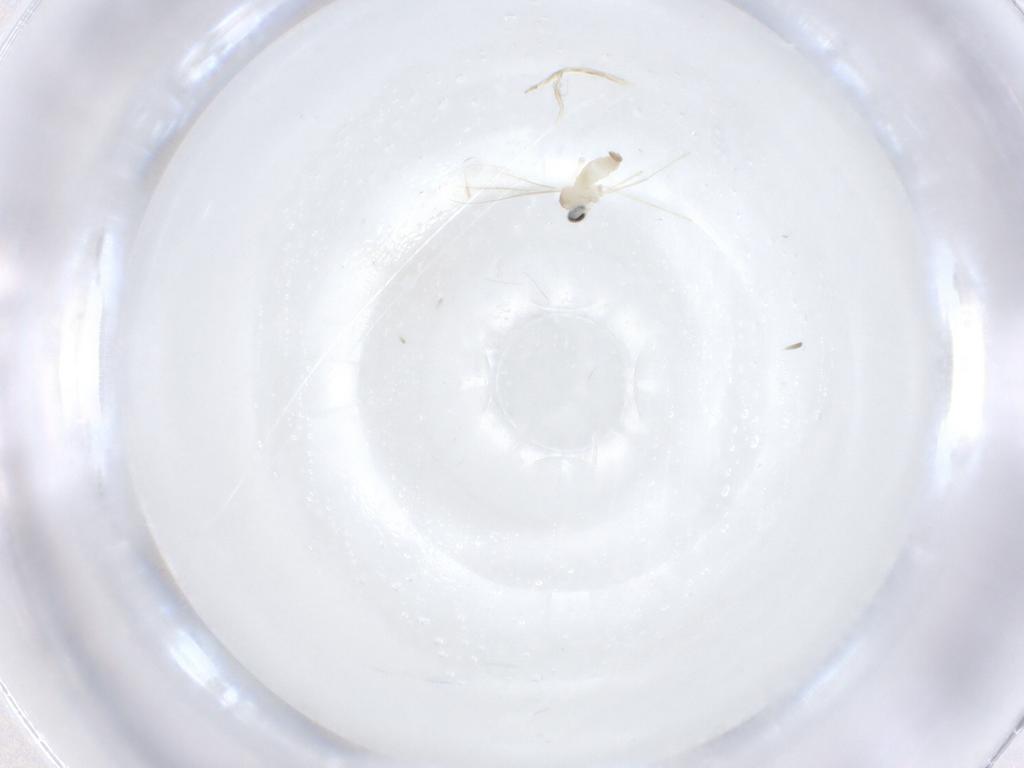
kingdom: Animalia
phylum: Arthropoda
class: Insecta
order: Diptera
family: Cecidomyiidae
